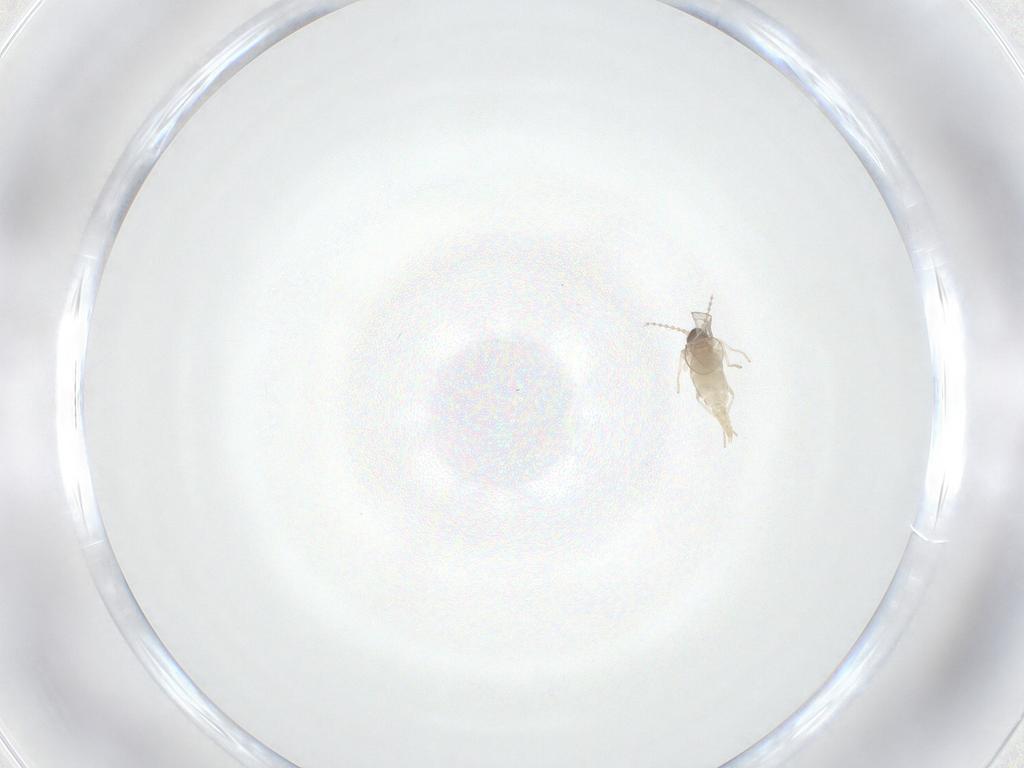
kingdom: Animalia
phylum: Arthropoda
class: Insecta
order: Diptera
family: Cecidomyiidae
